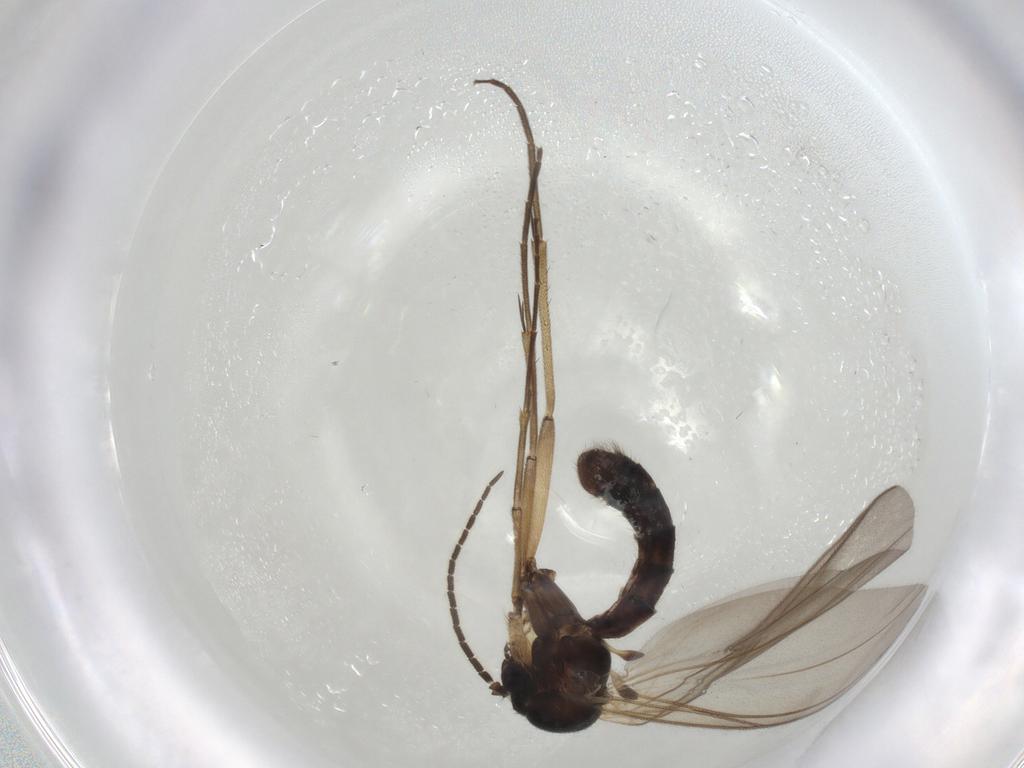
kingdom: Animalia
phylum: Arthropoda
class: Insecta
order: Diptera
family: Mycetophilidae
